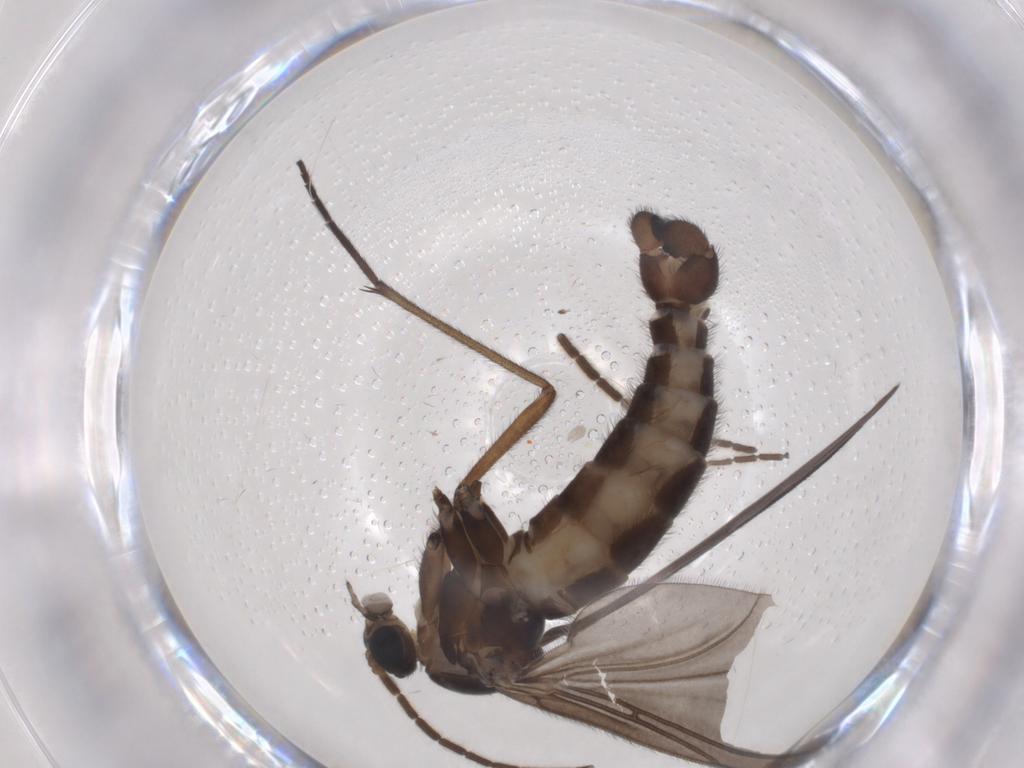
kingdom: Animalia
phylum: Arthropoda
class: Insecta
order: Diptera
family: Sciaridae
